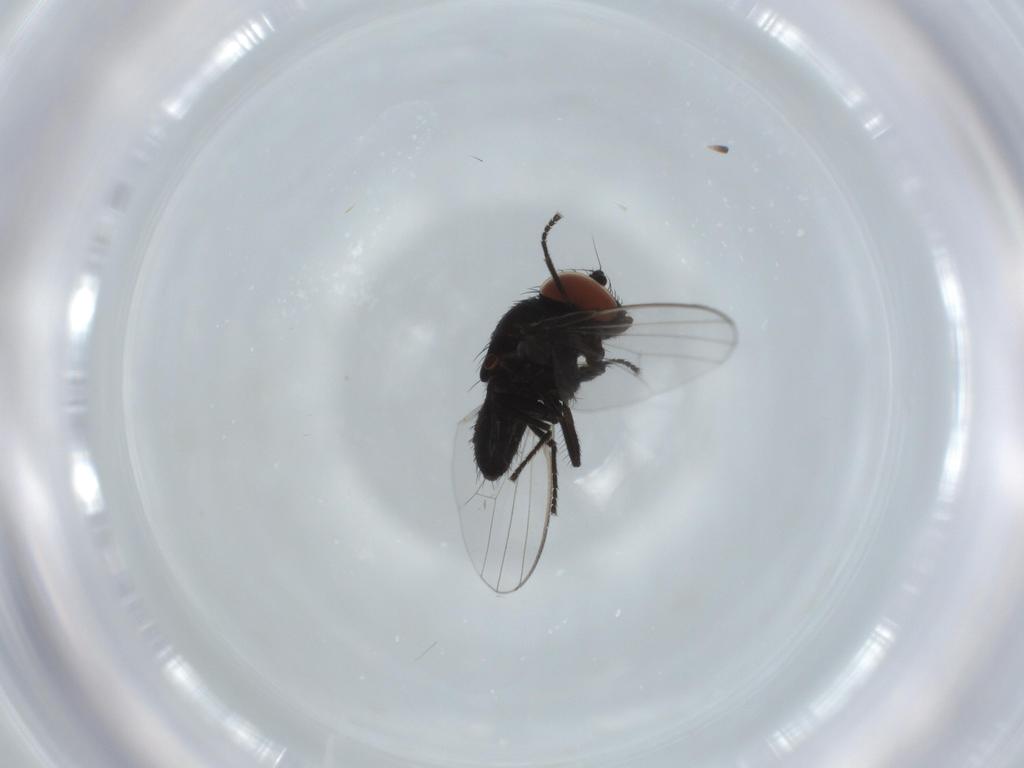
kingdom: Animalia
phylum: Arthropoda
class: Insecta
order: Diptera
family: Milichiidae
